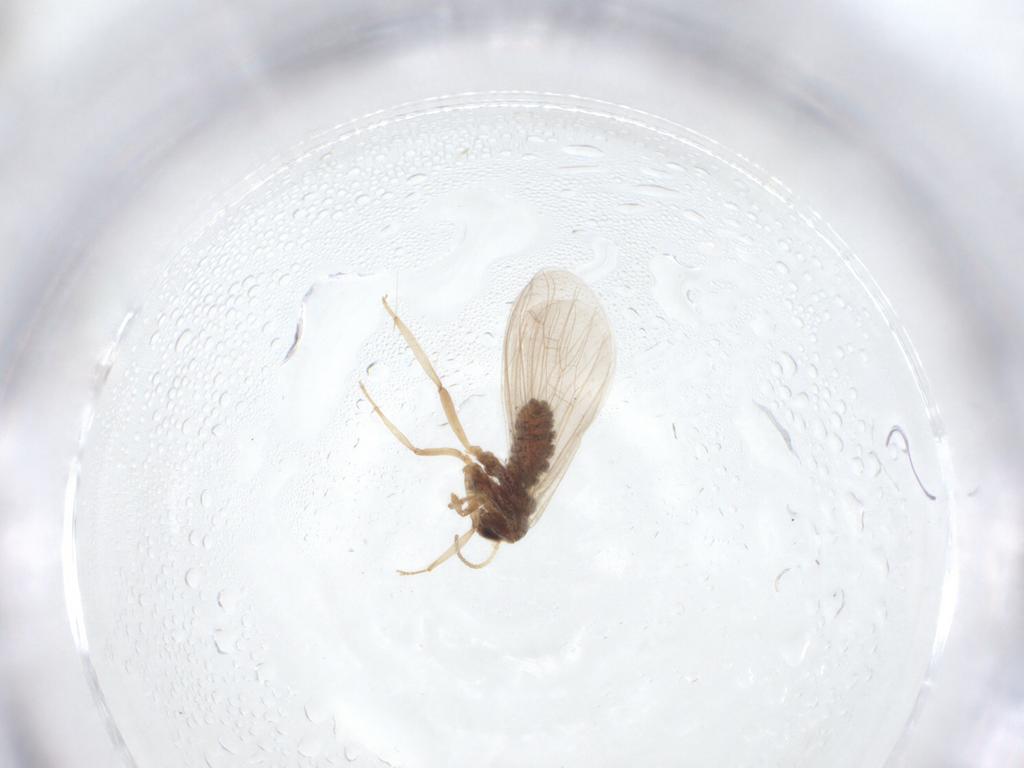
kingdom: Animalia
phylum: Arthropoda
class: Insecta
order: Neuroptera
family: Coniopterygidae
